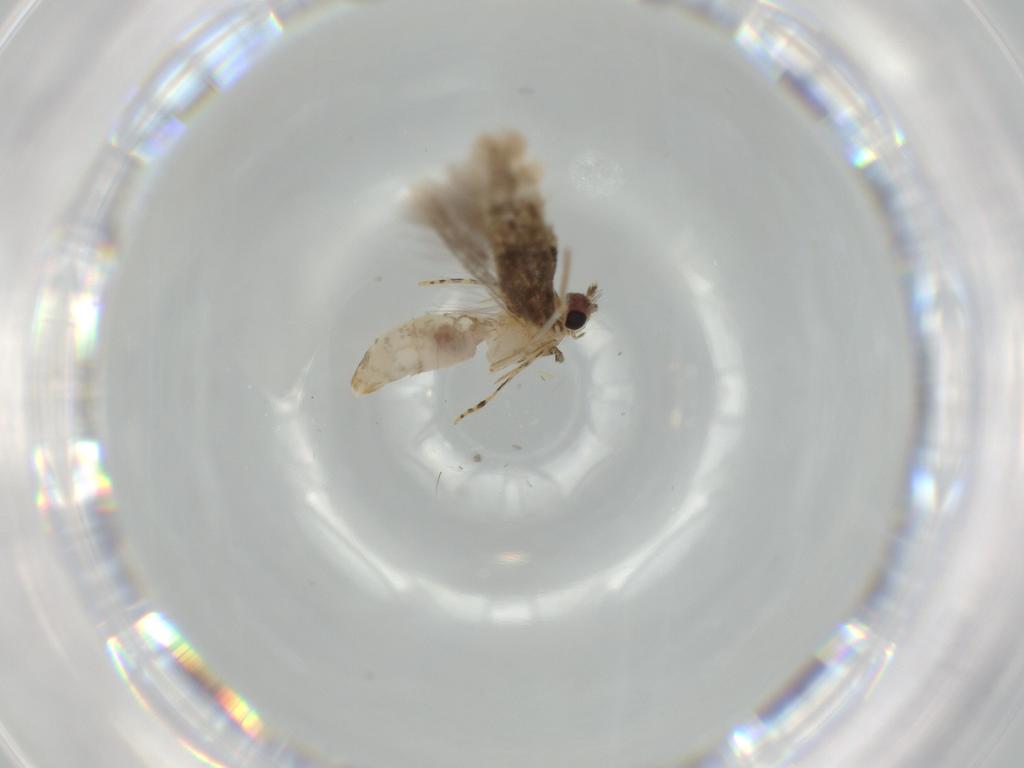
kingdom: Animalia
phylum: Arthropoda
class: Insecta
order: Lepidoptera
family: Tineidae
